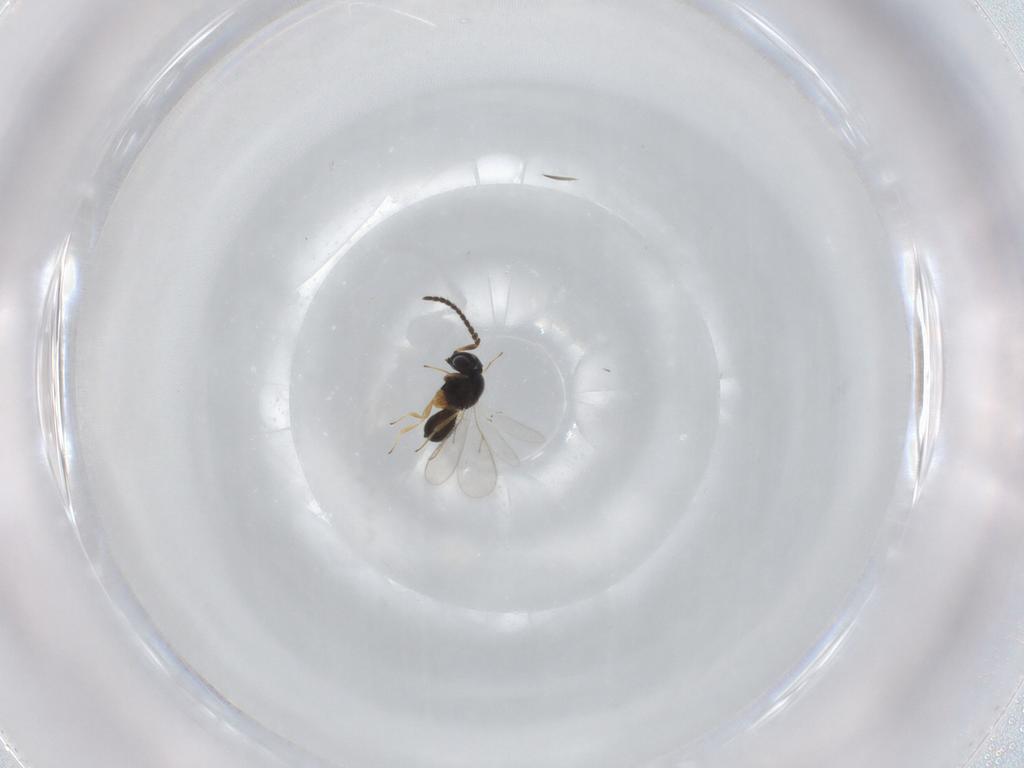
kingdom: Animalia
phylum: Arthropoda
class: Insecta
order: Hymenoptera
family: Scelionidae
